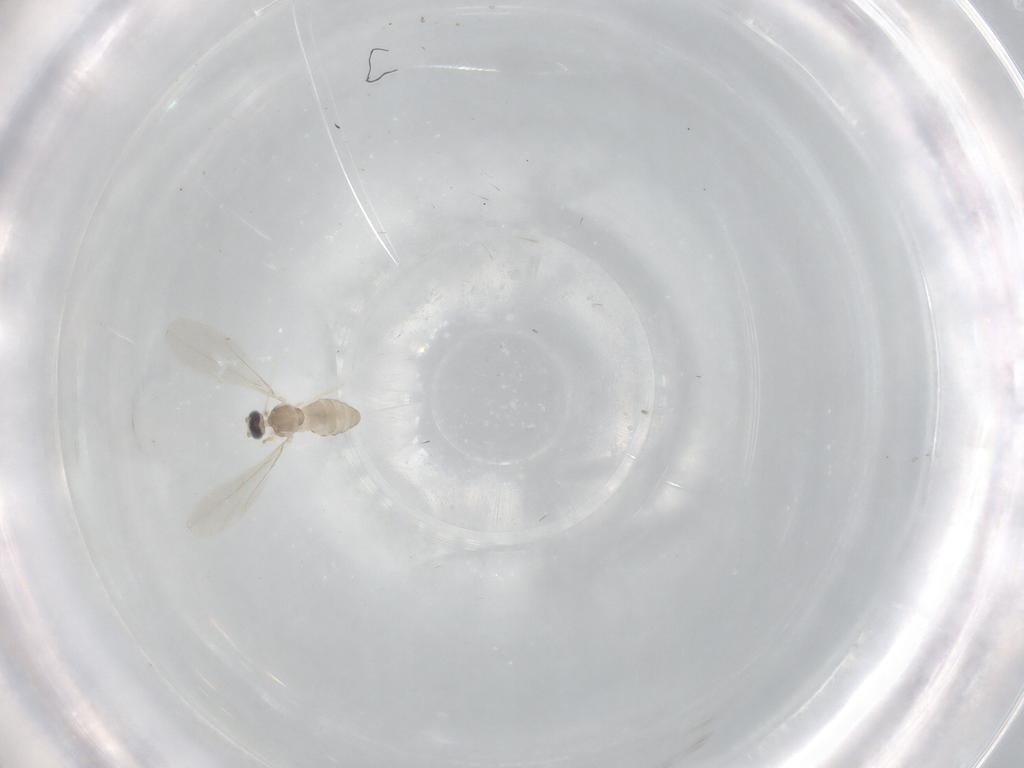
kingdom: Animalia
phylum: Arthropoda
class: Insecta
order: Diptera
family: Cecidomyiidae
